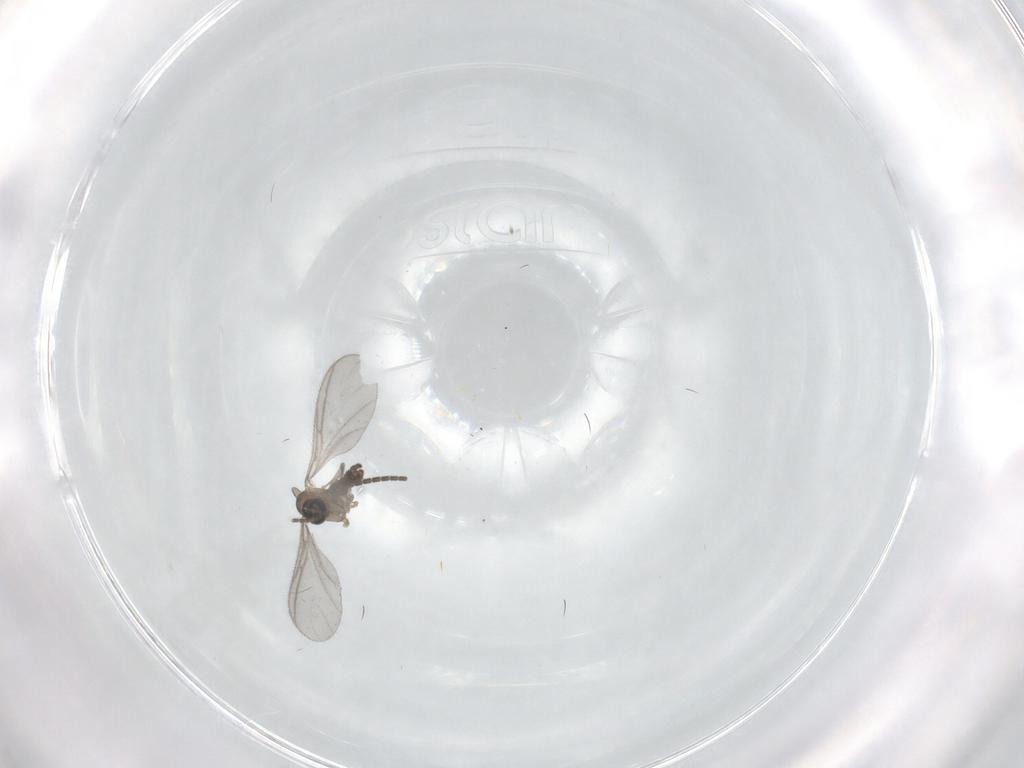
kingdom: Animalia
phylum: Arthropoda
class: Insecta
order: Diptera
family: Sciaridae
